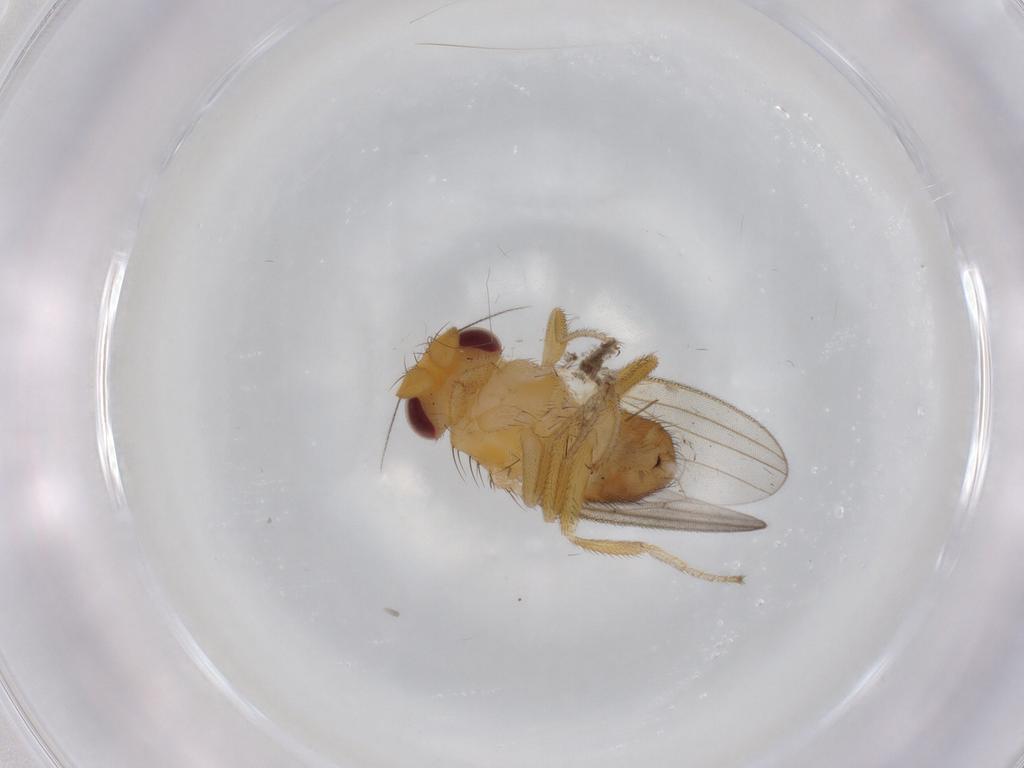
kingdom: Animalia
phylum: Arthropoda
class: Insecta
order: Diptera
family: Milichiidae
